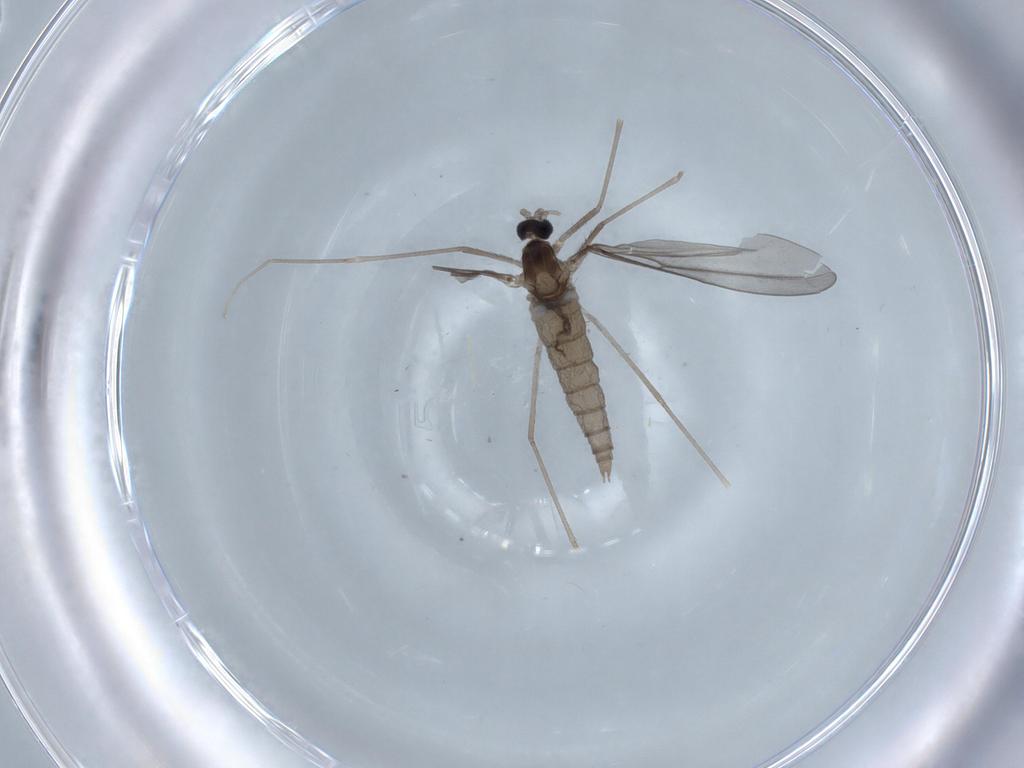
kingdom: Animalia
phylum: Arthropoda
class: Insecta
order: Diptera
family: Cecidomyiidae
